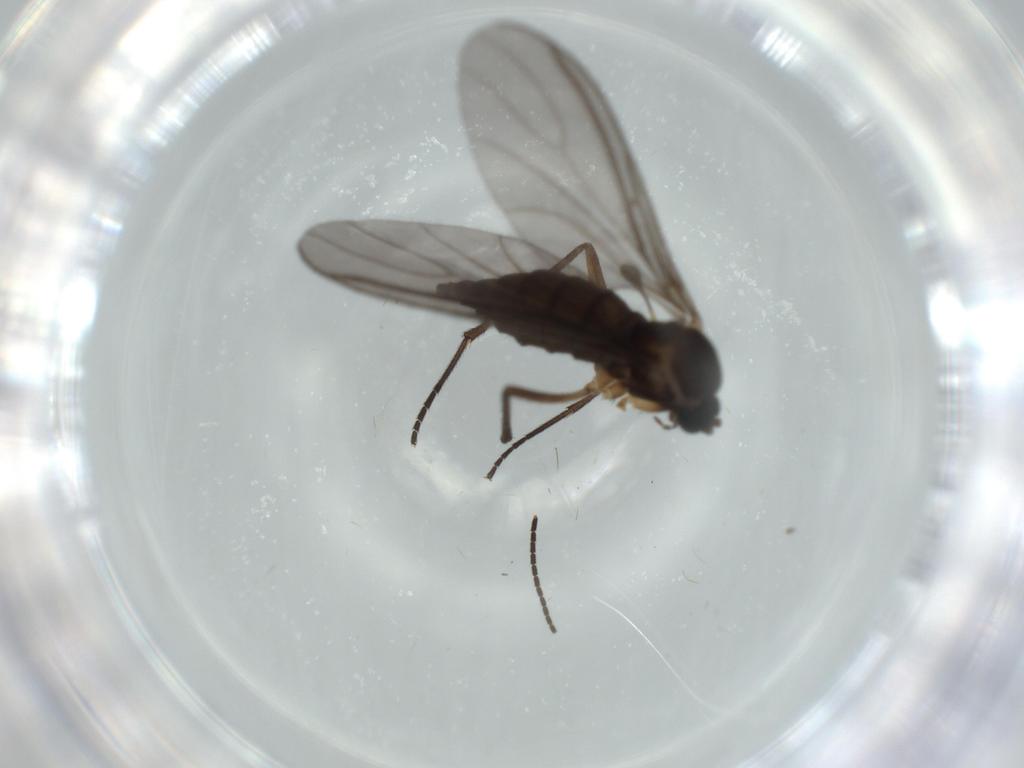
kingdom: Animalia
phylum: Arthropoda
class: Insecta
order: Diptera
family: Sciaridae
